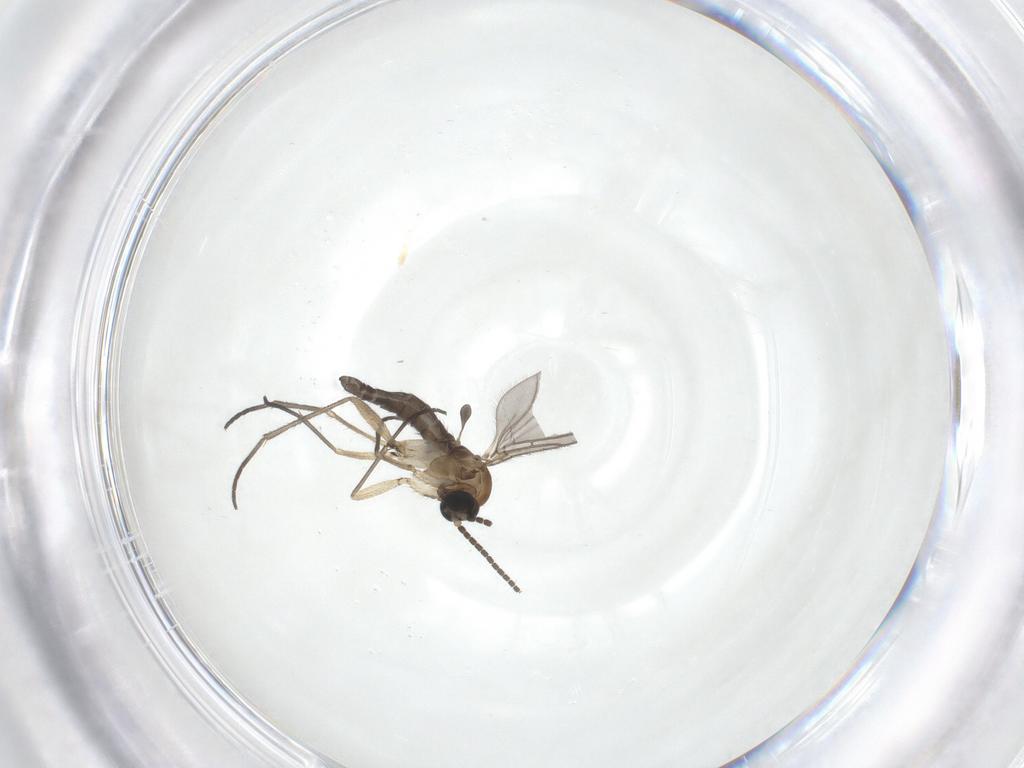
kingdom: Animalia
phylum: Arthropoda
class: Insecta
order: Diptera
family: Sciaridae
